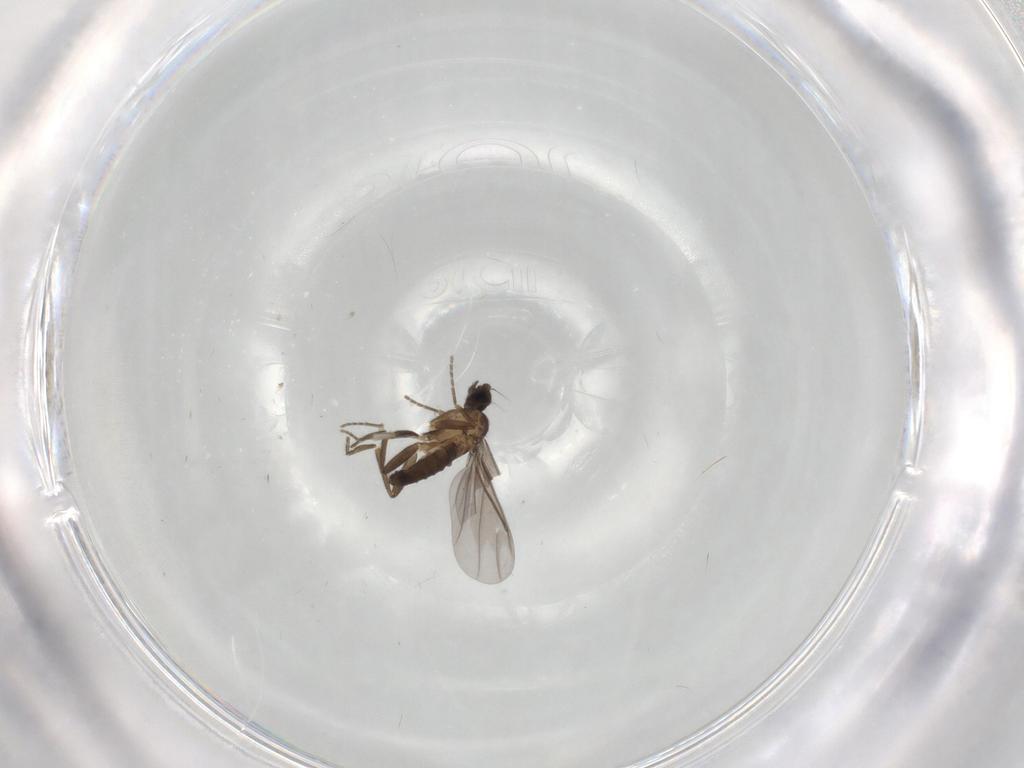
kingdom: Animalia
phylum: Arthropoda
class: Insecta
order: Diptera
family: Phoridae
